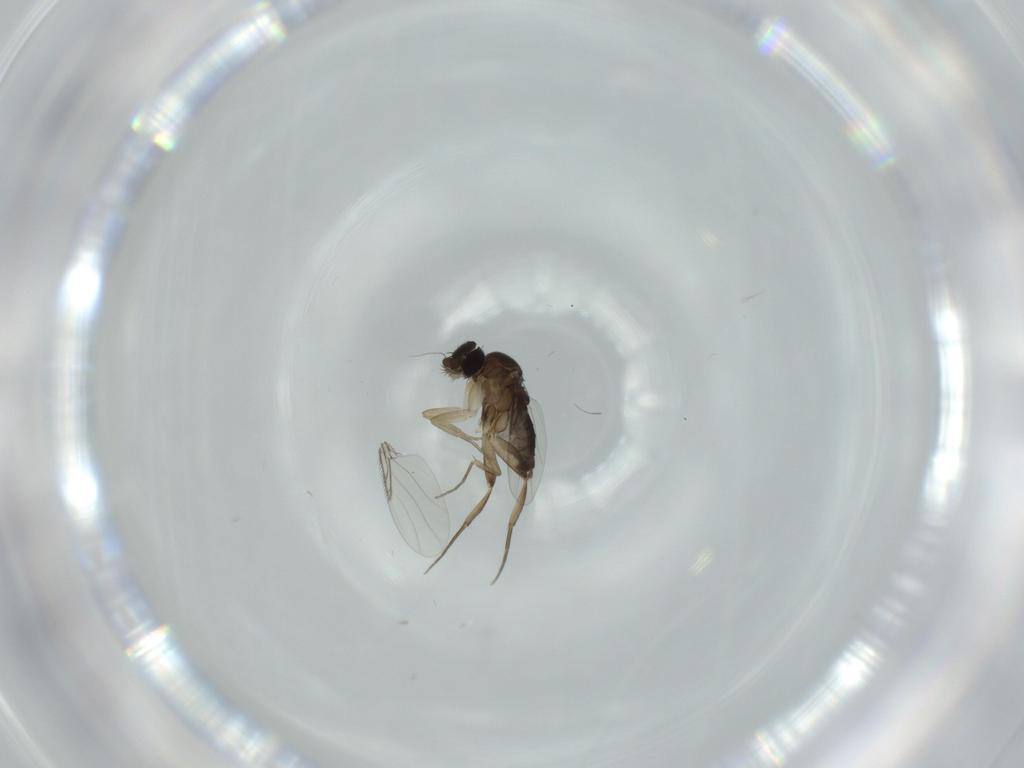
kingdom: Animalia
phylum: Arthropoda
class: Insecta
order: Diptera
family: Phoridae
